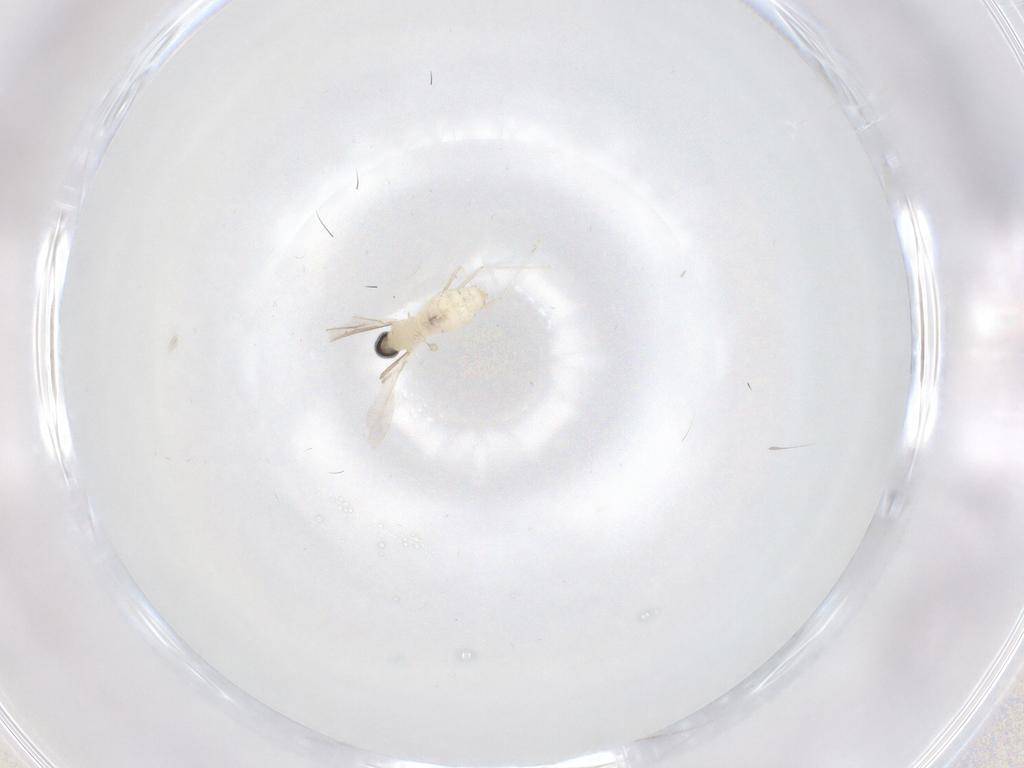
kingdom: Animalia
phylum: Arthropoda
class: Insecta
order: Diptera
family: Cecidomyiidae
